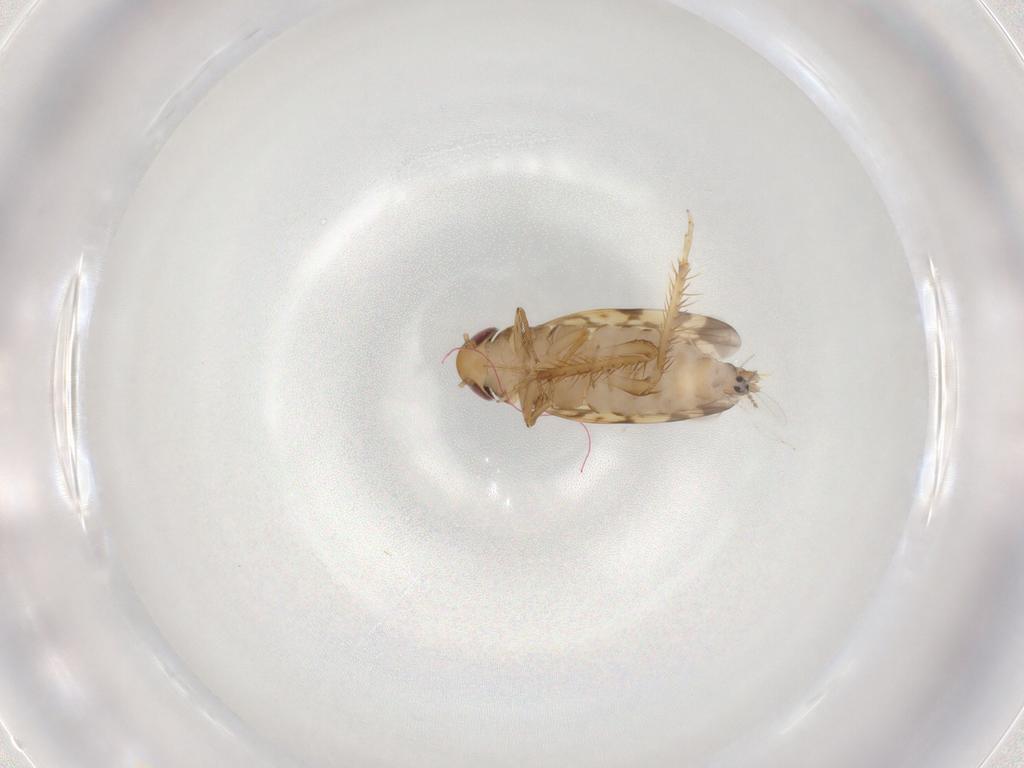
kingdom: Animalia
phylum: Arthropoda
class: Insecta
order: Hemiptera
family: Cicadellidae
